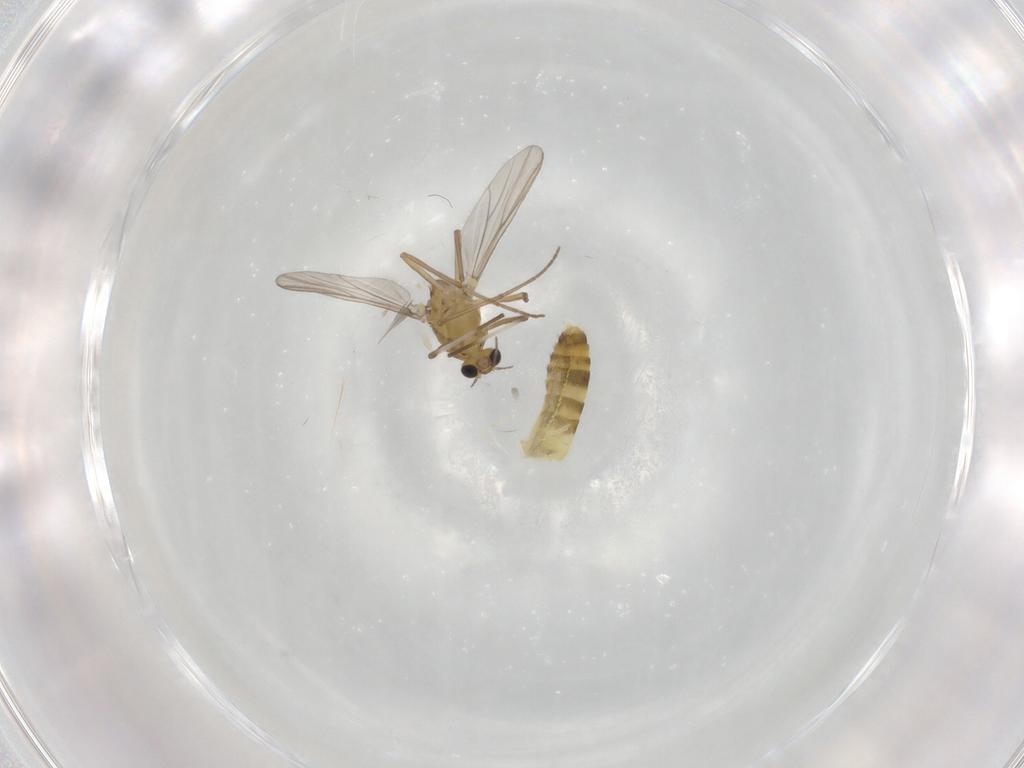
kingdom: Animalia
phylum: Arthropoda
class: Insecta
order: Diptera
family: Chironomidae
